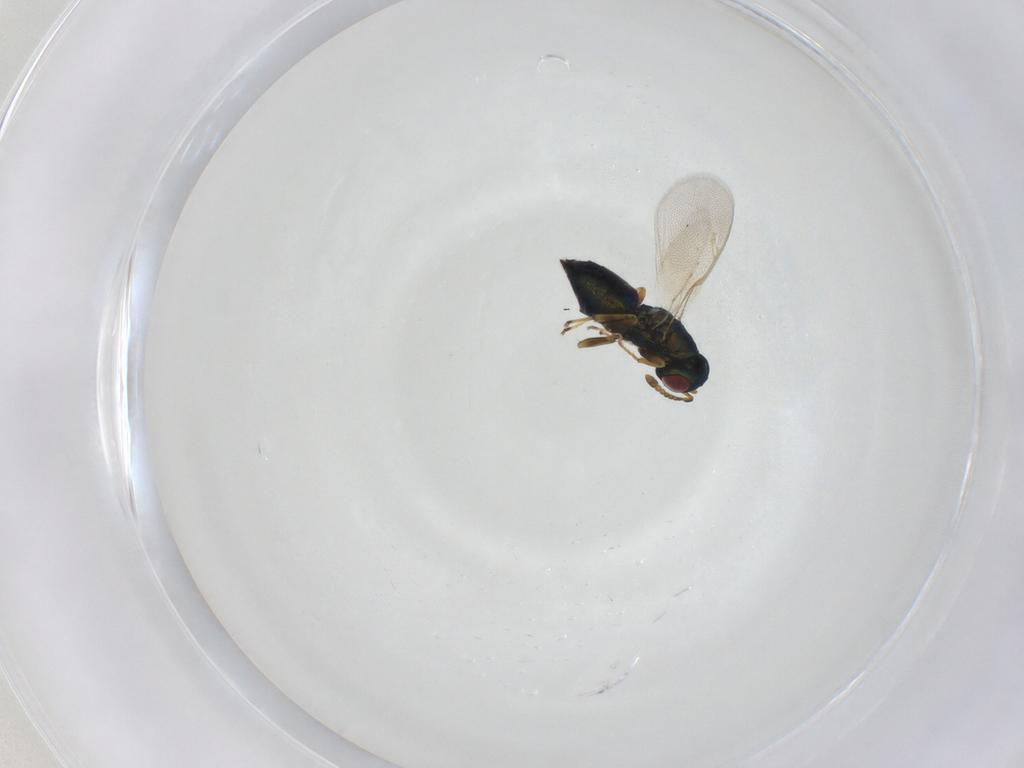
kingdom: Animalia
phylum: Arthropoda
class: Insecta
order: Hymenoptera
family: Pteromalidae
